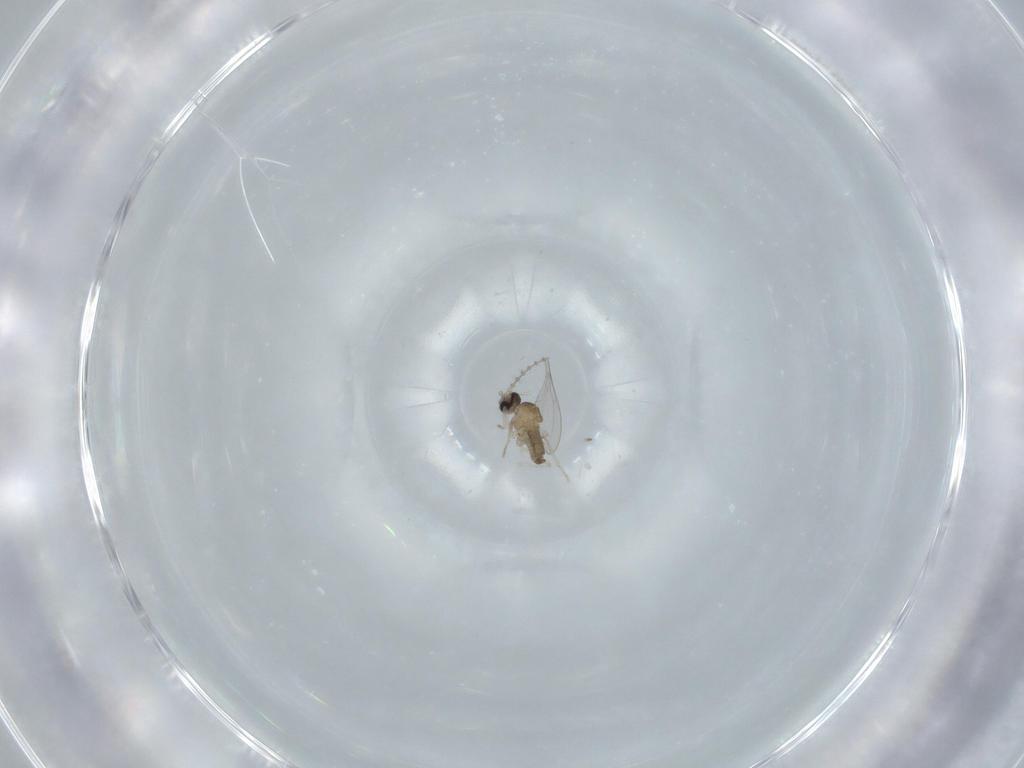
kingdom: Animalia
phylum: Arthropoda
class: Insecta
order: Diptera
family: Cecidomyiidae
